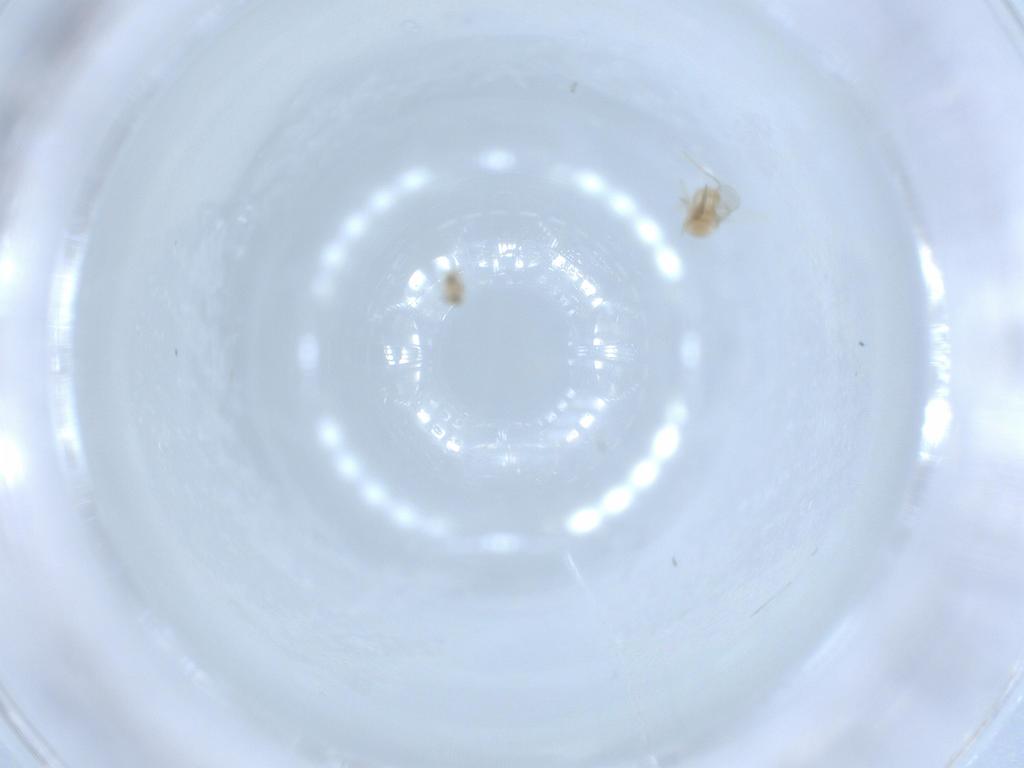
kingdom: Animalia
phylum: Arthropoda
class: Insecta
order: Hymenoptera
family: Aphelinidae
